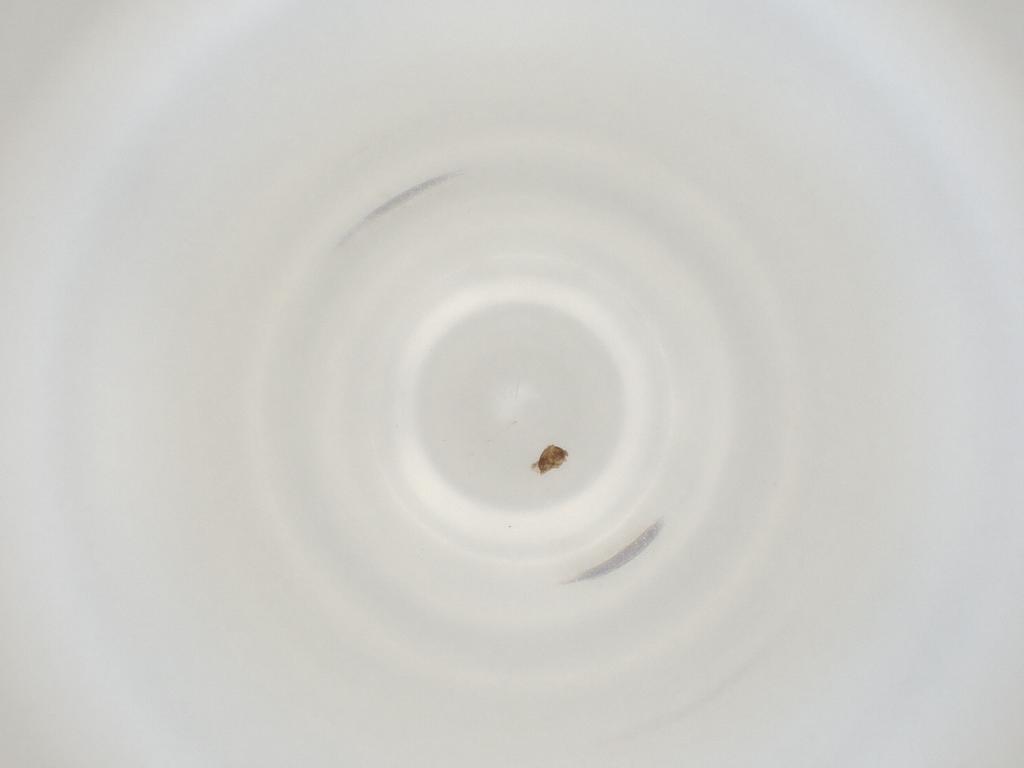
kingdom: Animalia
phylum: Arthropoda
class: Insecta
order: Diptera
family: Cecidomyiidae
